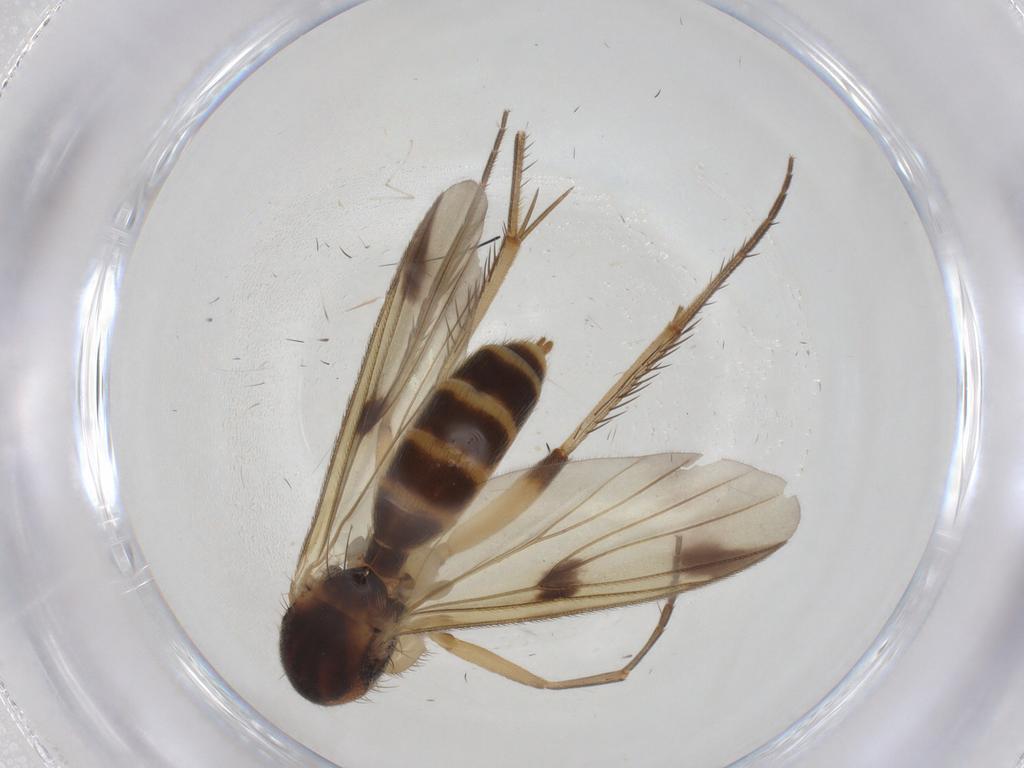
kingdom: Animalia
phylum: Arthropoda
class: Insecta
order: Diptera
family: Mycetophilidae
